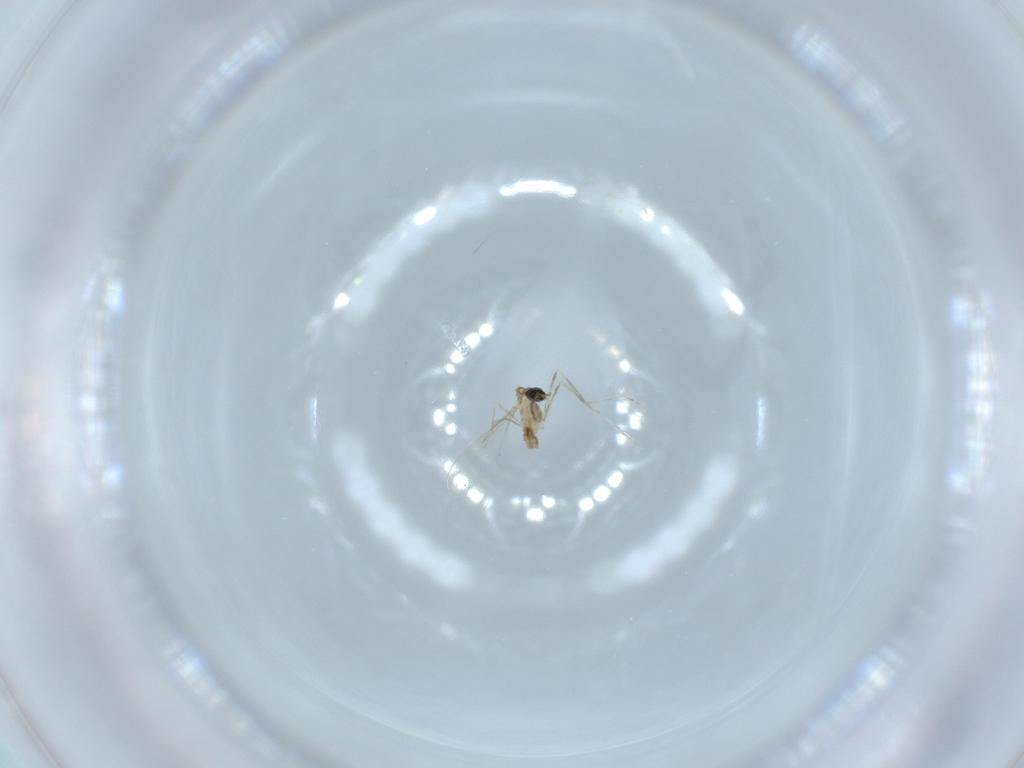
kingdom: Animalia
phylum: Arthropoda
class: Insecta
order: Diptera
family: Cecidomyiidae
